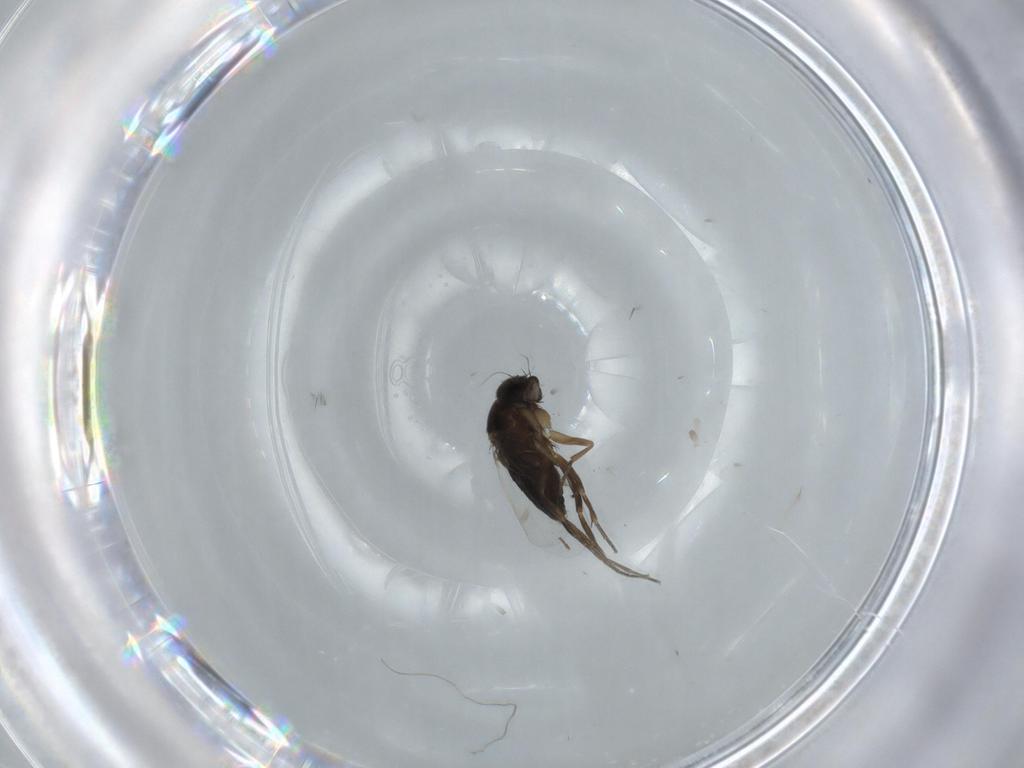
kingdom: Animalia
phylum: Arthropoda
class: Insecta
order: Diptera
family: Phoridae
